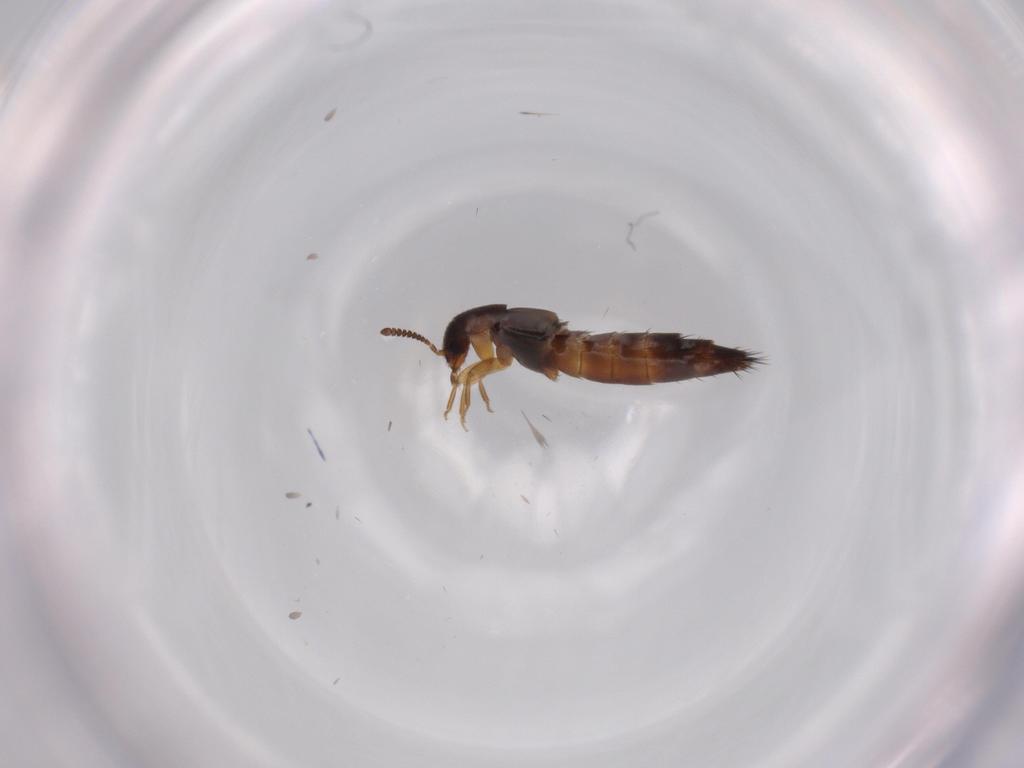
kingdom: Animalia
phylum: Arthropoda
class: Insecta
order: Coleoptera
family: Staphylinidae
